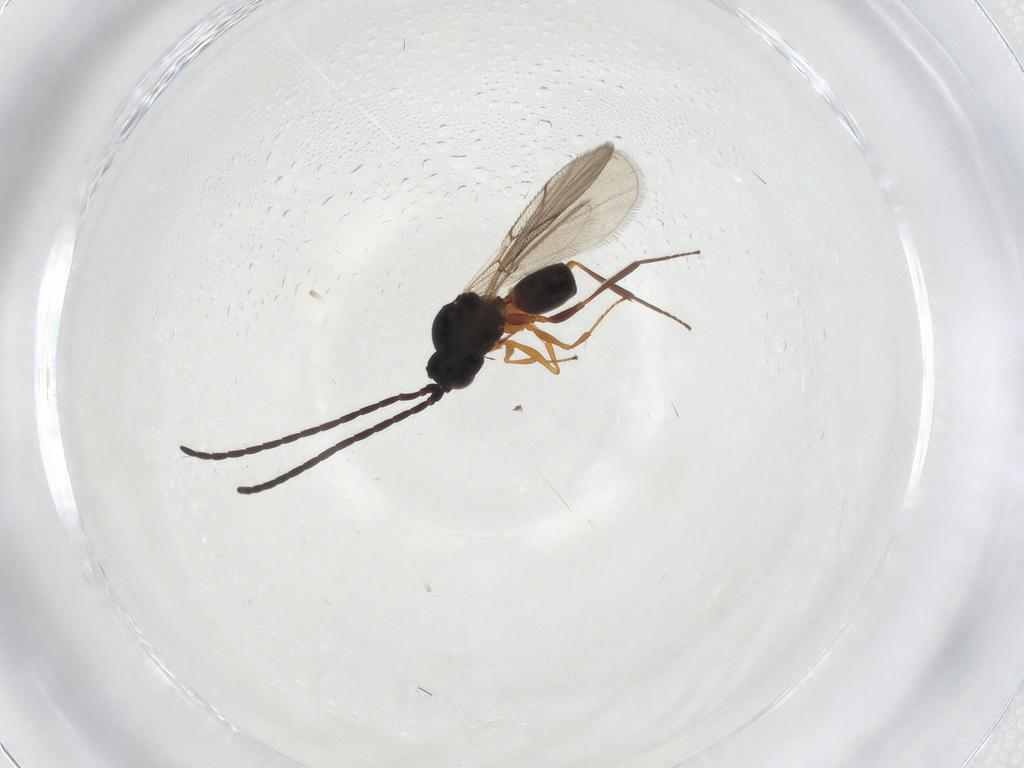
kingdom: Animalia
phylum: Arthropoda
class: Insecta
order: Hymenoptera
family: Figitidae
